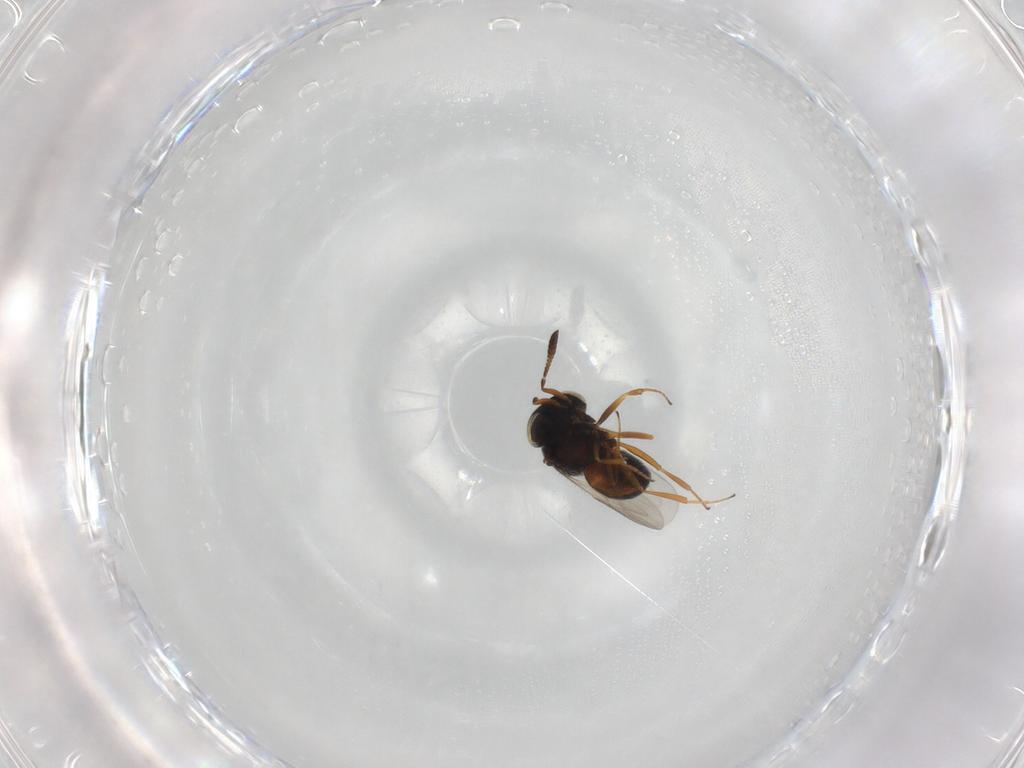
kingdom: Animalia
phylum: Arthropoda
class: Insecta
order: Hymenoptera
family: Scelionidae
